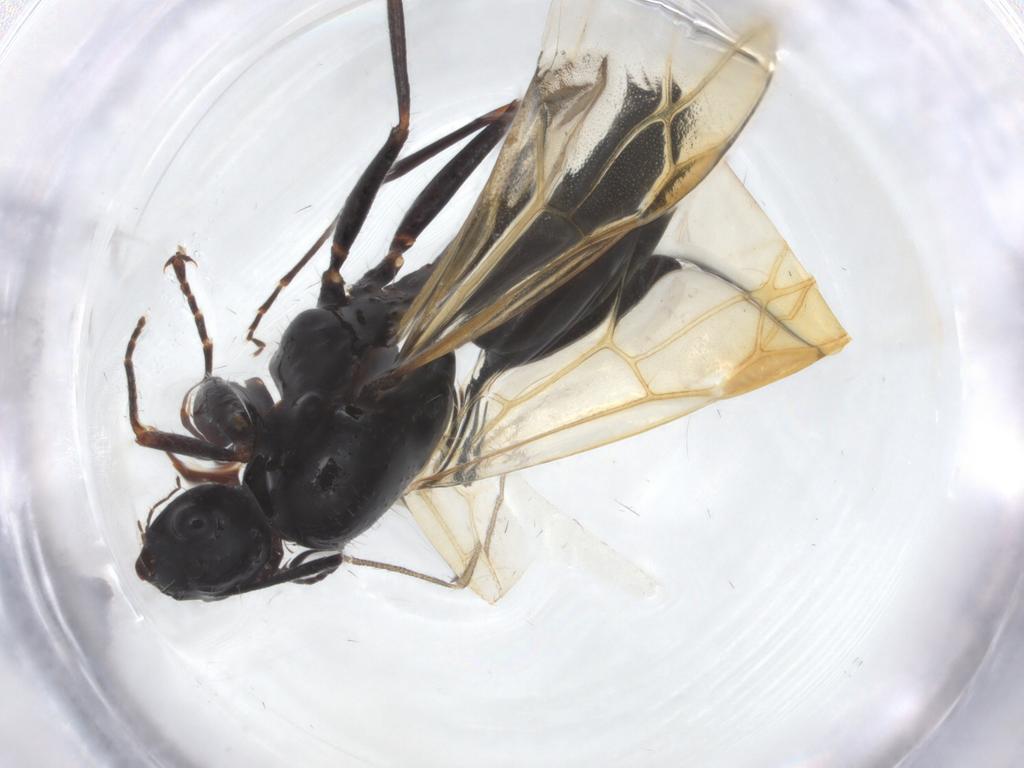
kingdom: Animalia
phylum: Arthropoda
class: Insecta
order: Hymenoptera
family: Formicidae
